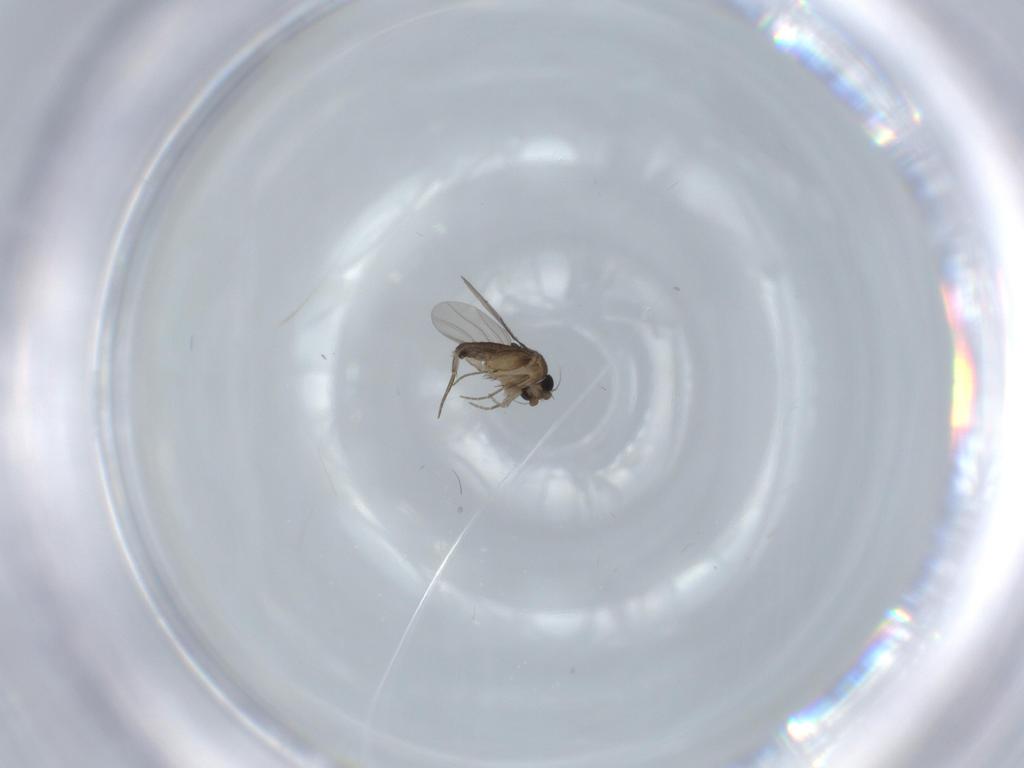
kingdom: Animalia
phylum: Arthropoda
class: Insecta
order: Diptera
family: Phoridae
